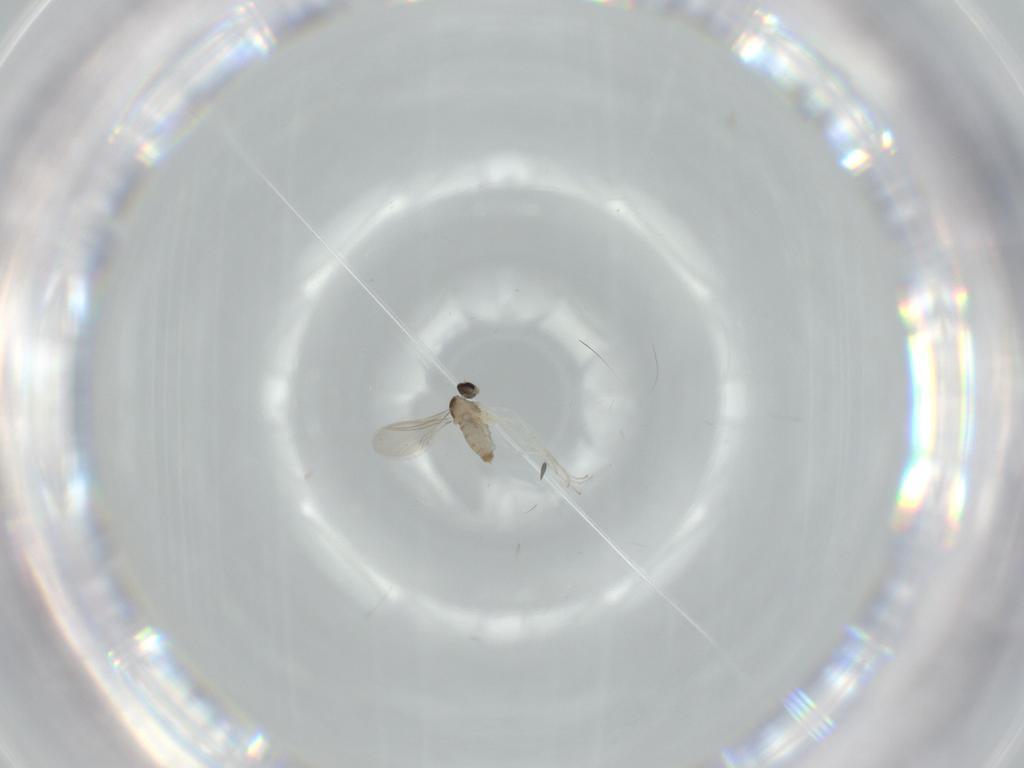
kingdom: Animalia
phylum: Arthropoda
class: Insecta
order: Diptera
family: Cecidomyiidae
